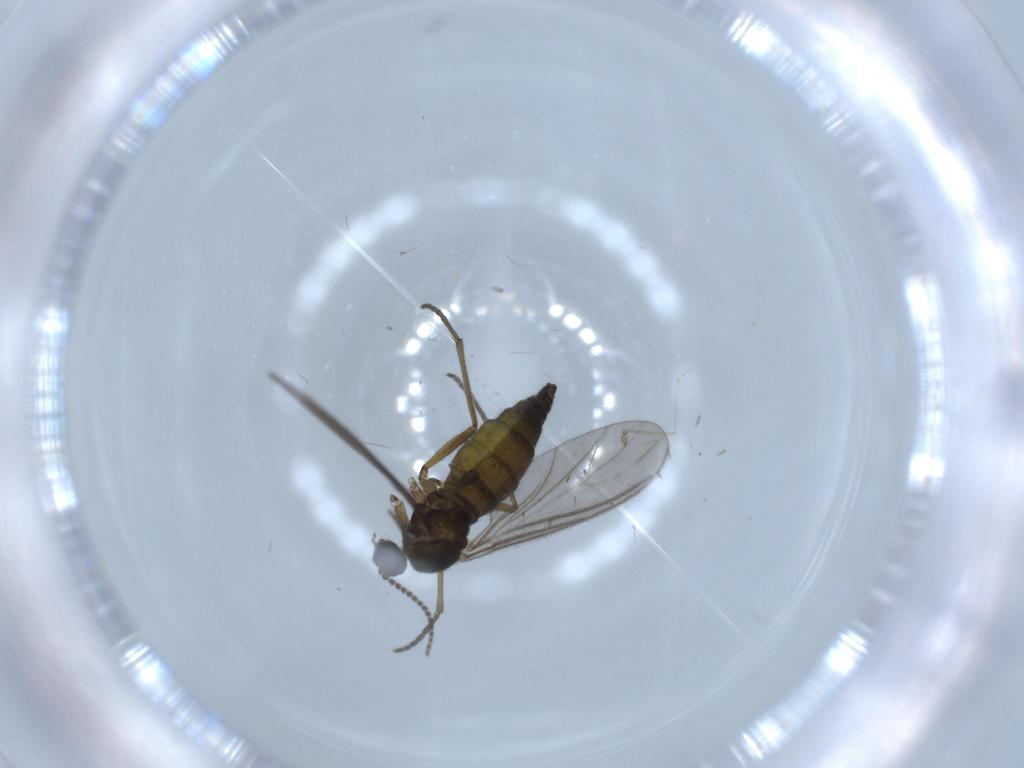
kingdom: Animalia
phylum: Arthropoda
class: Insecta
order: Diptera
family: Sciaridae
